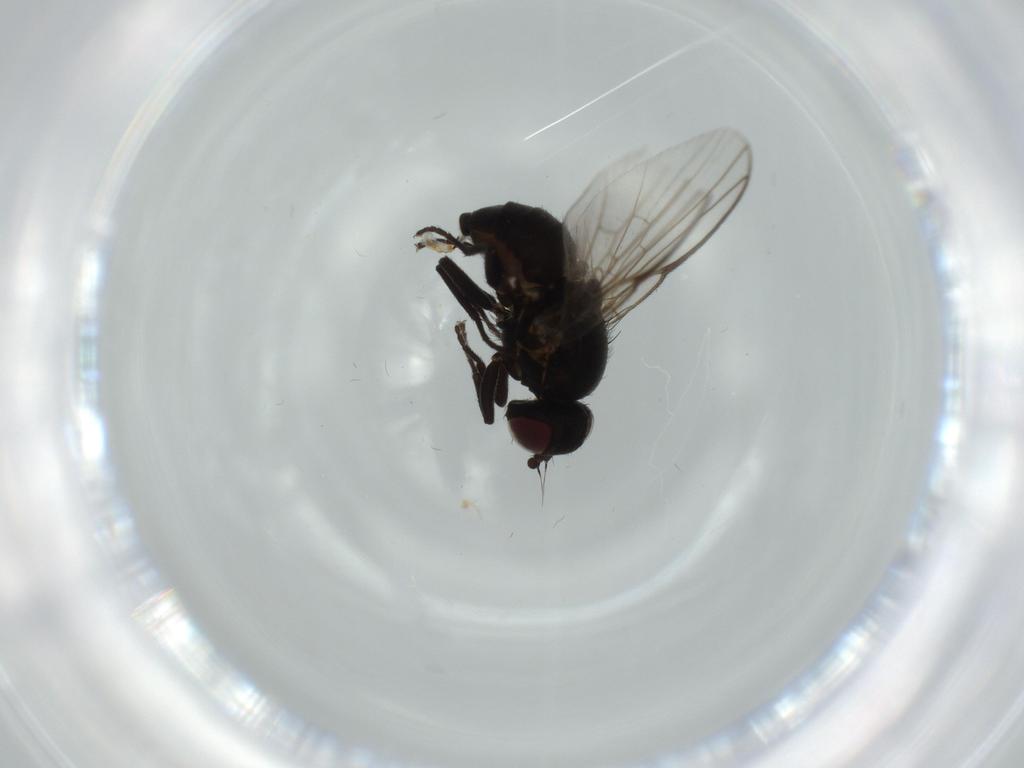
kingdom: Animalia
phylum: Arthropoda
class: Insecta
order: Diptera
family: Agromyzidae
